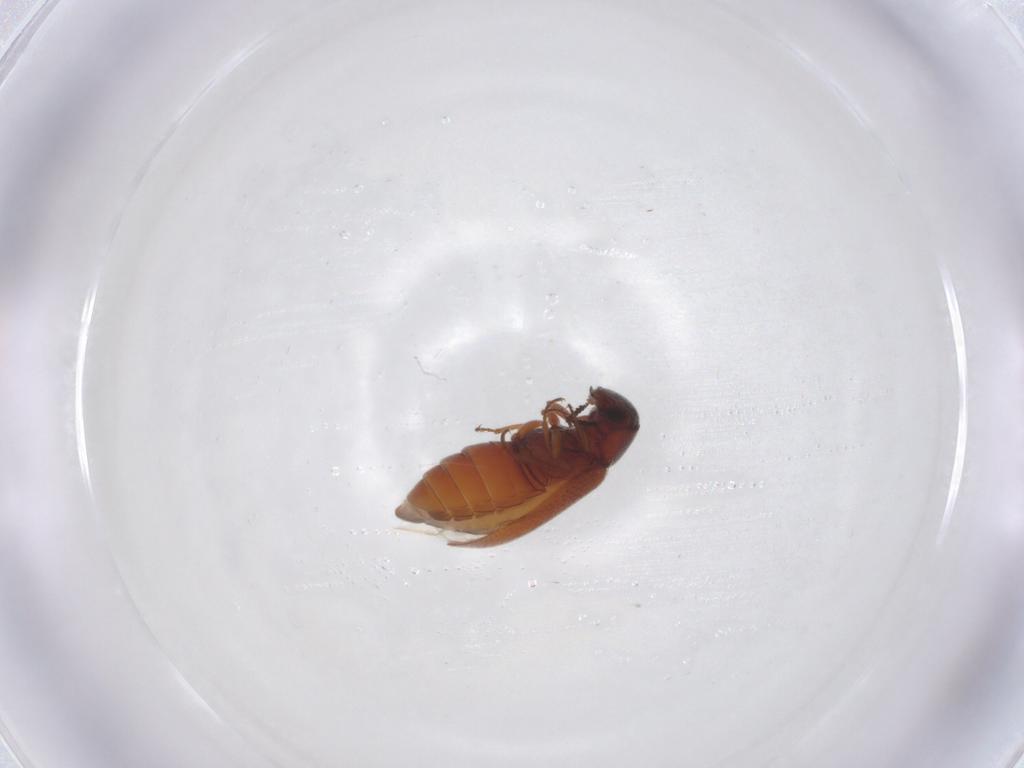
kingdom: Animalia
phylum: Arthropoda
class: Insecta
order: Coleoptera
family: Rhadalidae
